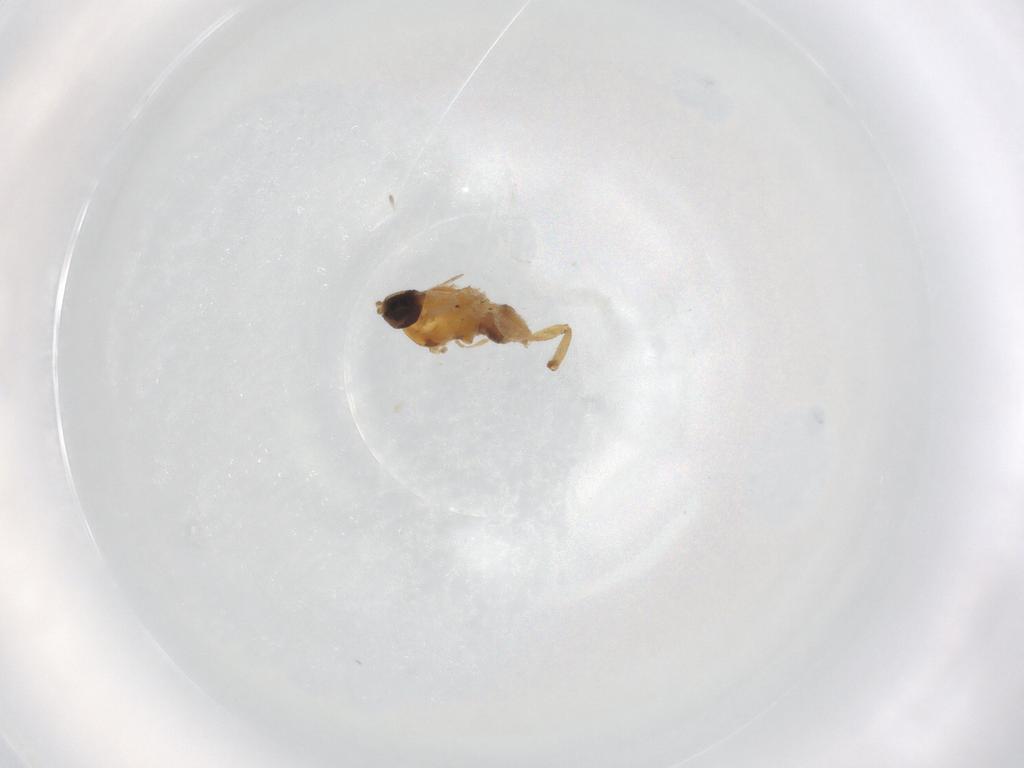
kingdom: Animalia
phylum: Arthropoda
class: Insecta
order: Diptera
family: Hybotidae
